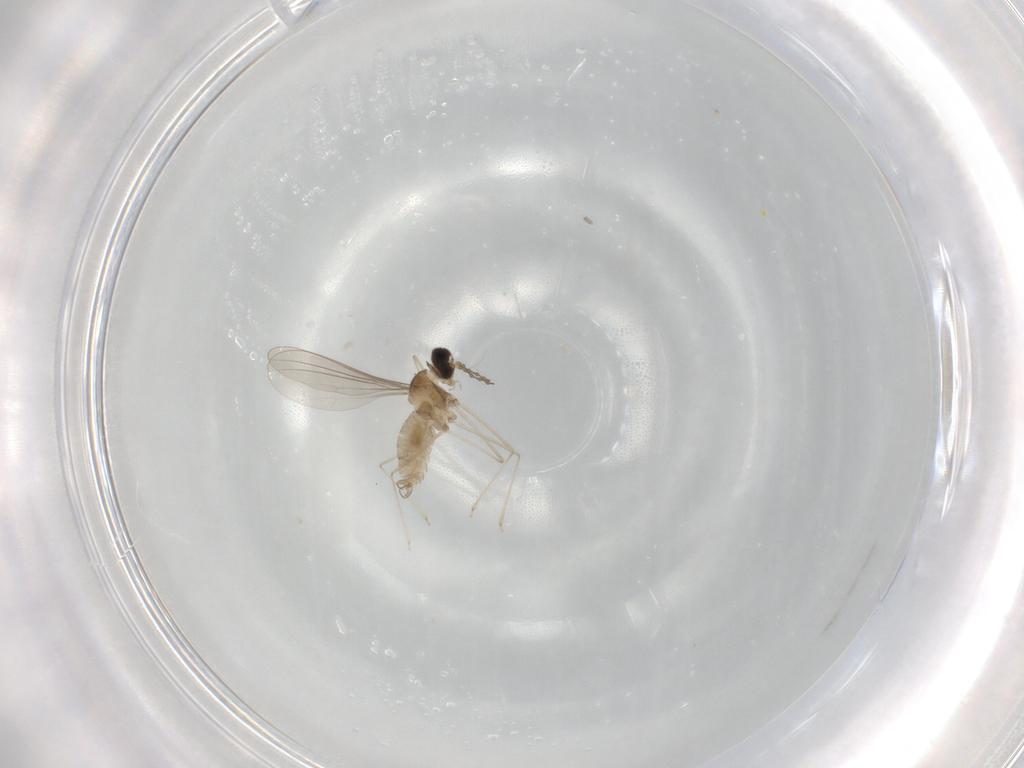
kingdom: Animalia
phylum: Arthropoda
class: Insecta
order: Diptera
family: Cecidomyiidae
